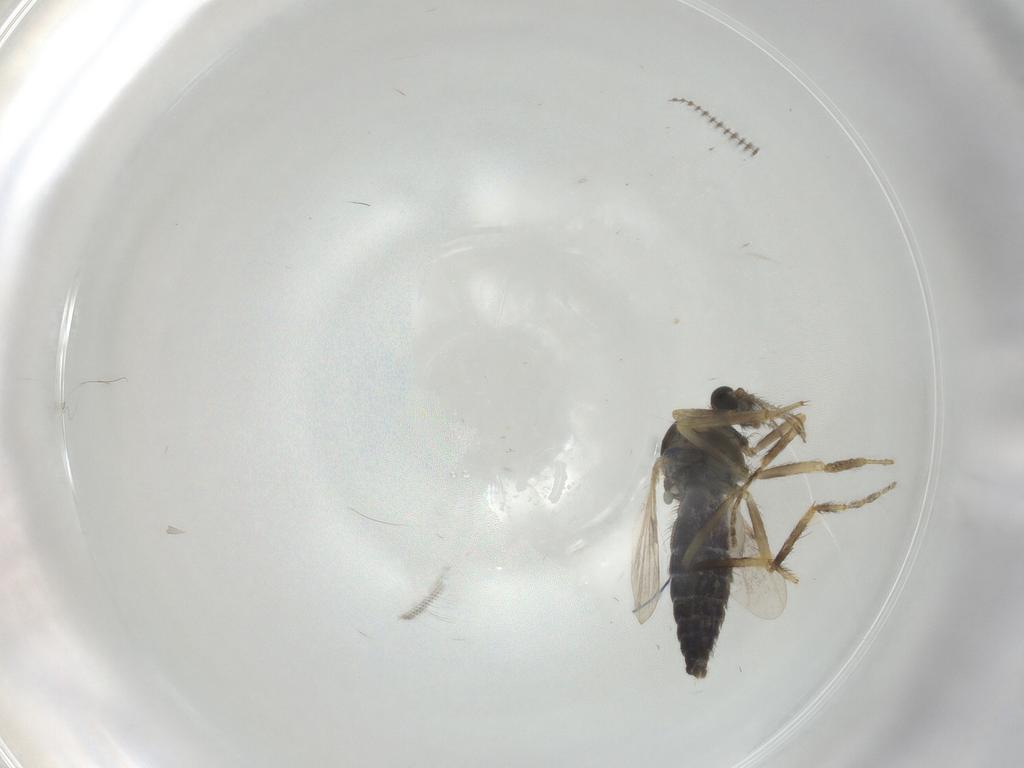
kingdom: Animalia
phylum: Arthropoda
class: Insecta
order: Diptera
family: Ceratopogonidae
